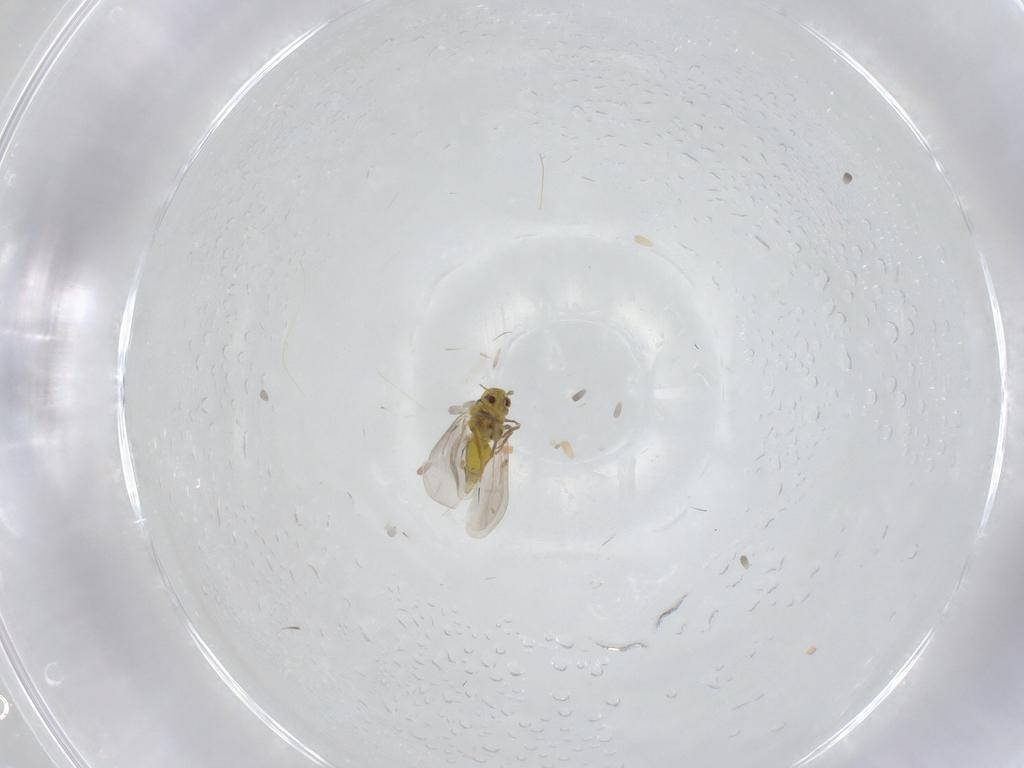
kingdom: Animalia
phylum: Arthropoda
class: Insecta
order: Hemiptera
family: Aleyrodidae
